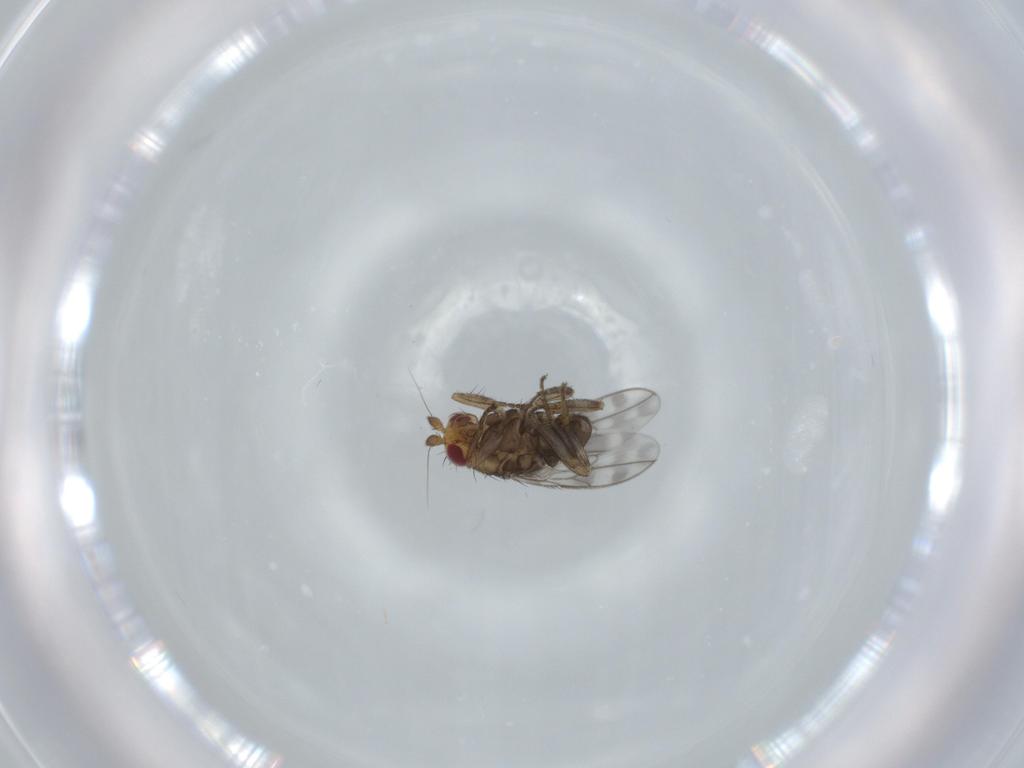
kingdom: Animalia
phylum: Arthropoda
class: Insecta
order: Diptera
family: Sphaeroceridae
